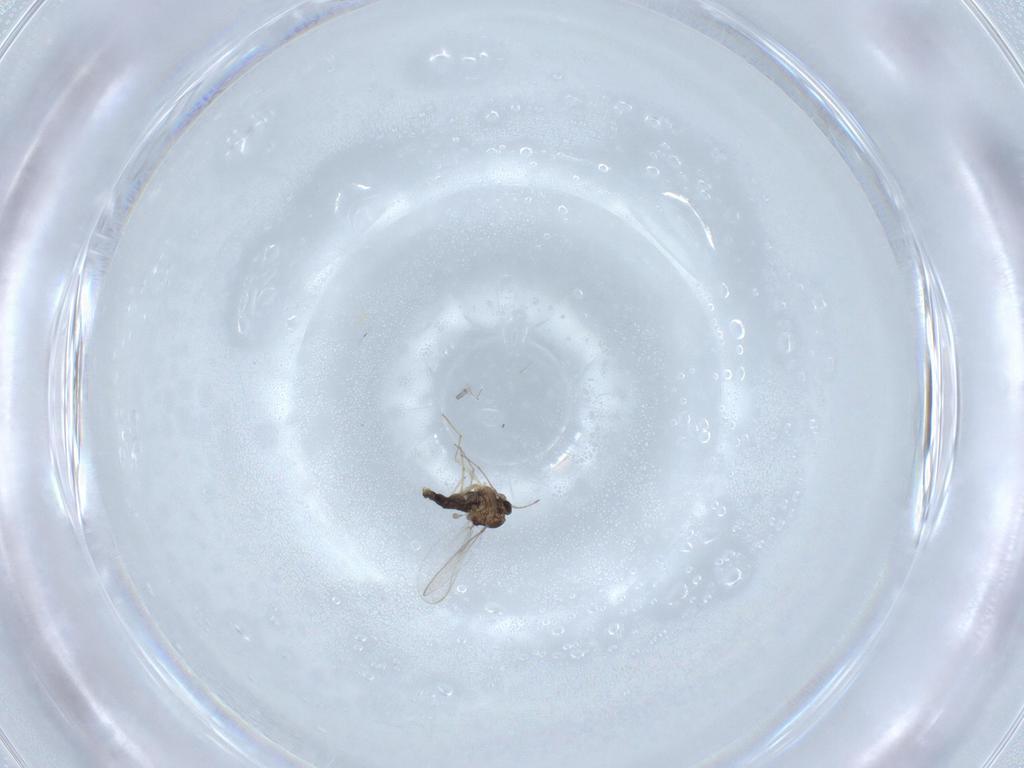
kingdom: Animalia
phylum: Arthropoda
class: Insecta
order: Diptera
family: Chironomidae
